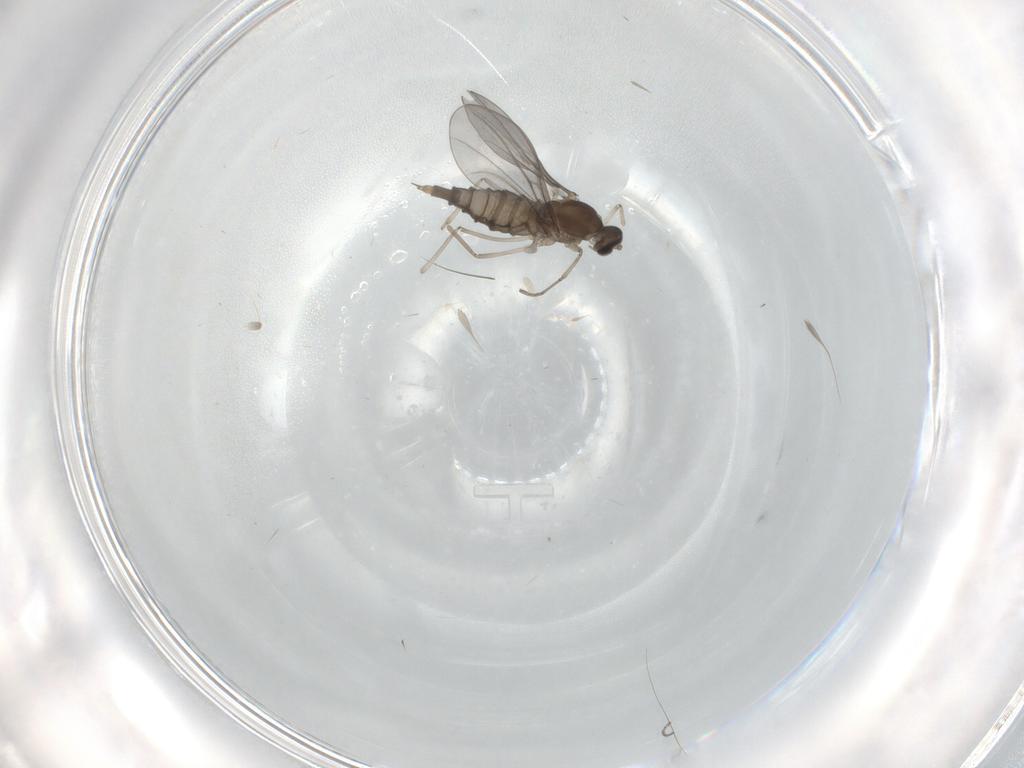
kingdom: Animalia
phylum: Arthropoda
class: Insecta
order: Diptera
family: Cecidomyiidae
